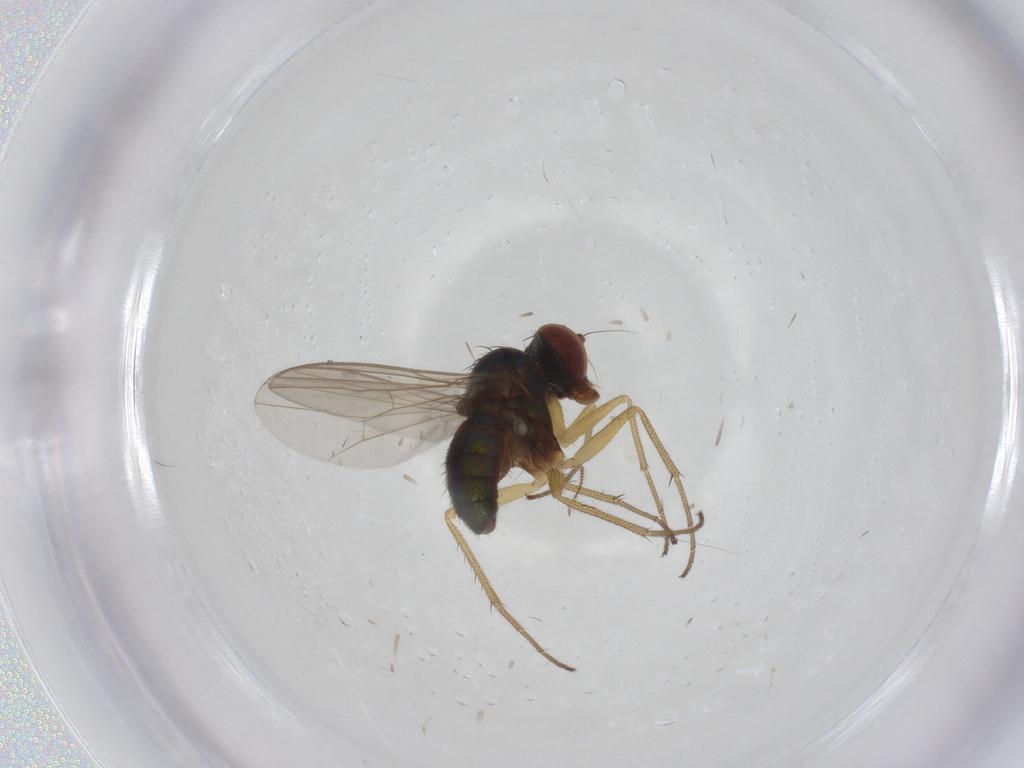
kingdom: Animalia
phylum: Arthropoda
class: Insecta
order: Diptera
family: Dolichopodidae
